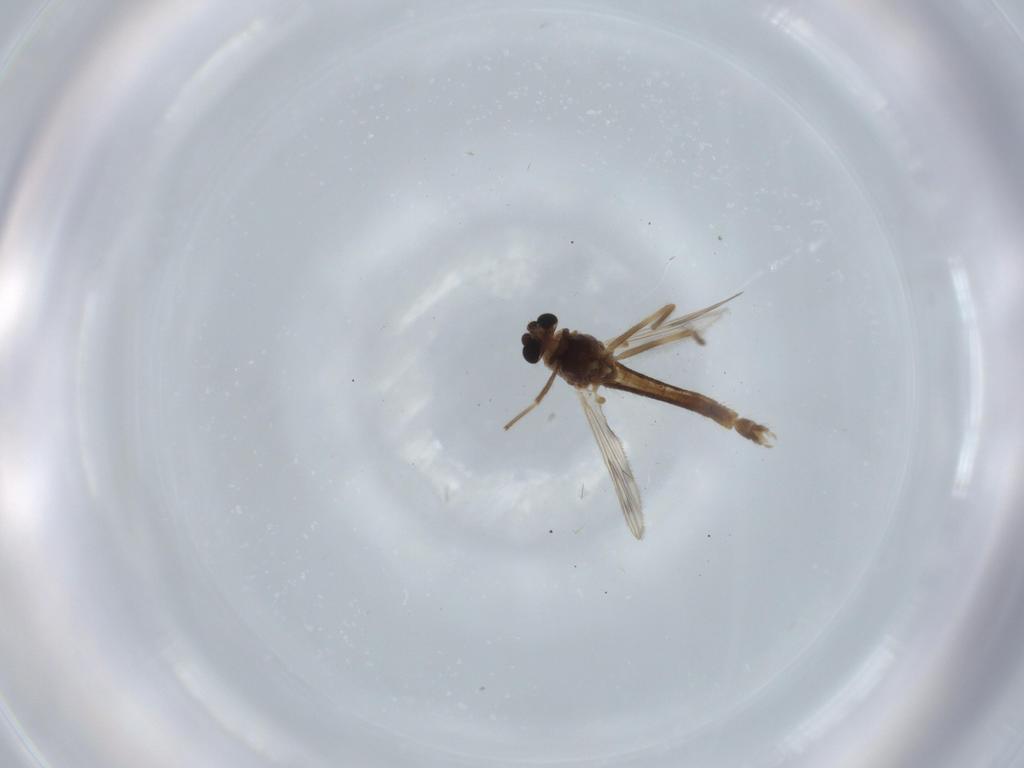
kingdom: Animalia
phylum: Arthropoda
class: Insecta
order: Diptera
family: Chironomidae
